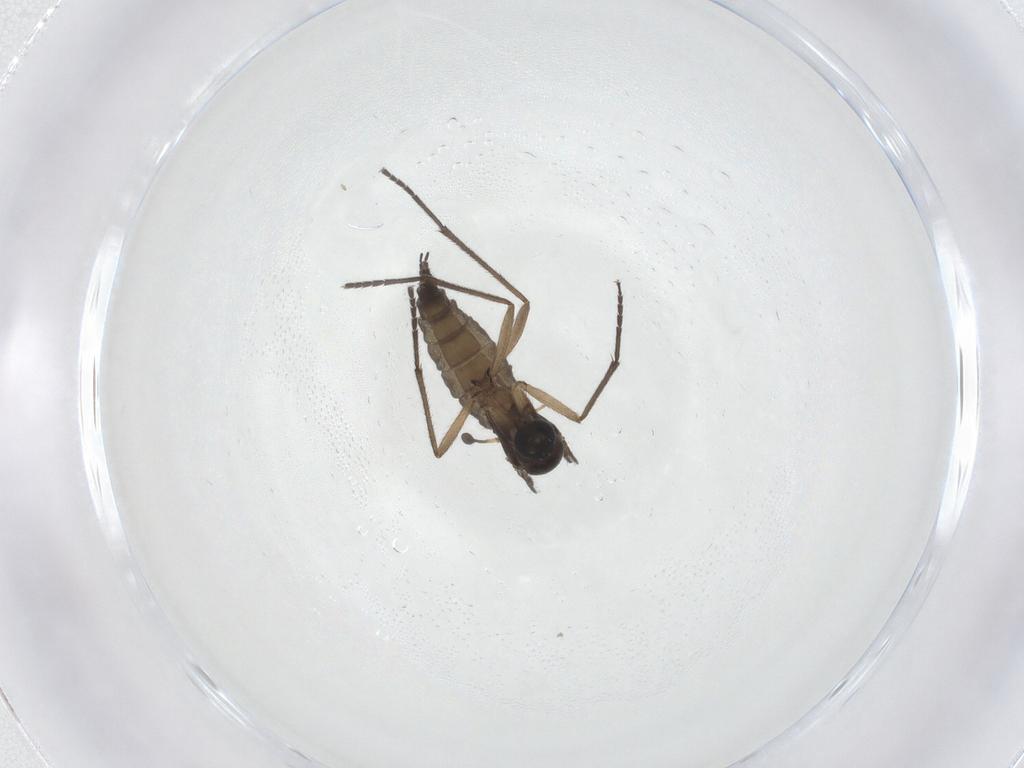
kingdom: Animalia
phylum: Arthropoda
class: Insecta
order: Diptera
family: Sciaridae
